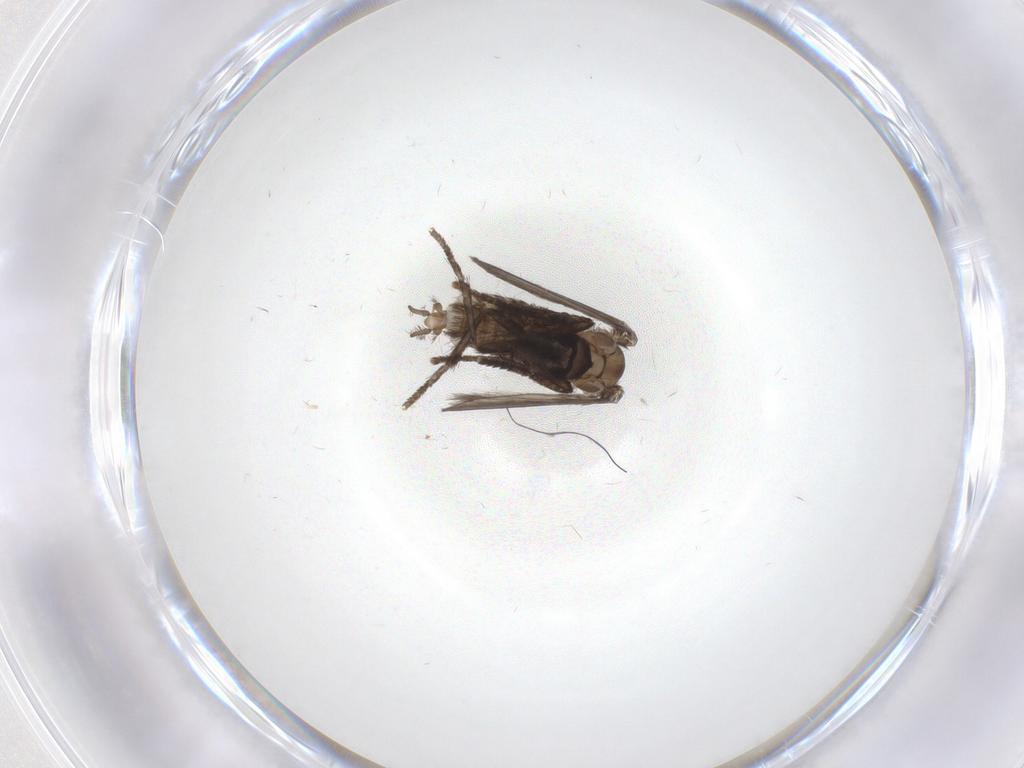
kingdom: Animalia
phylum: Arthropoda
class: Insecta
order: Diptera
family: Psychodidae
